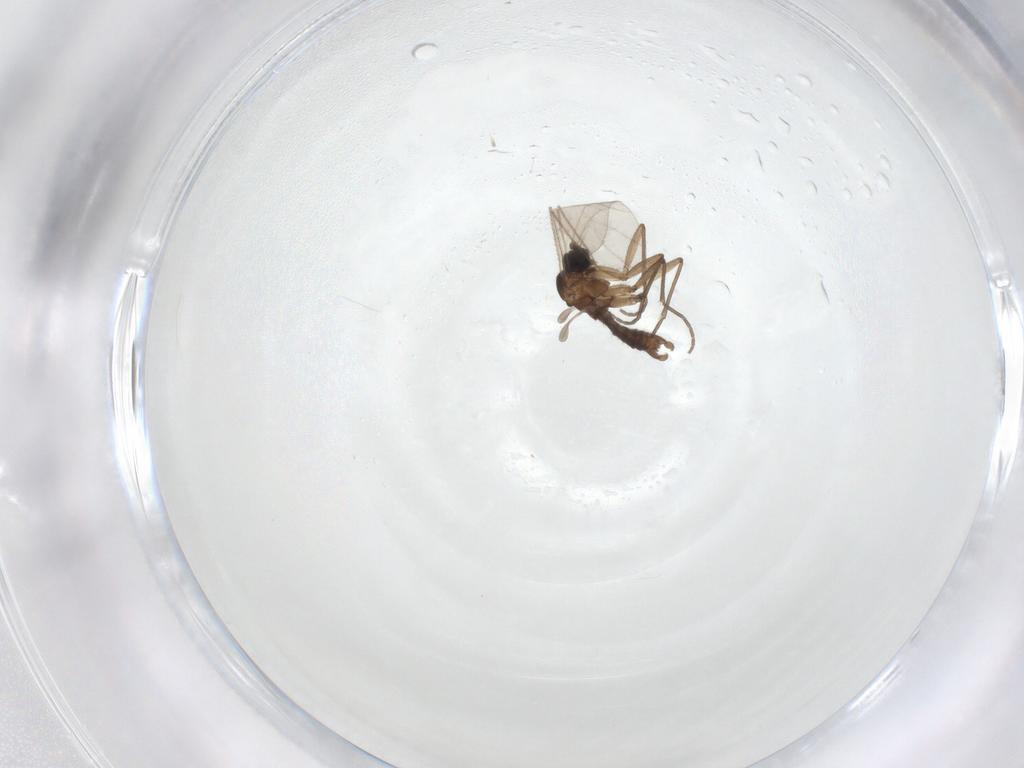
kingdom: Animalia
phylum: Arthropoda
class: Insecta
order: Diptera
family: Sciaridae
